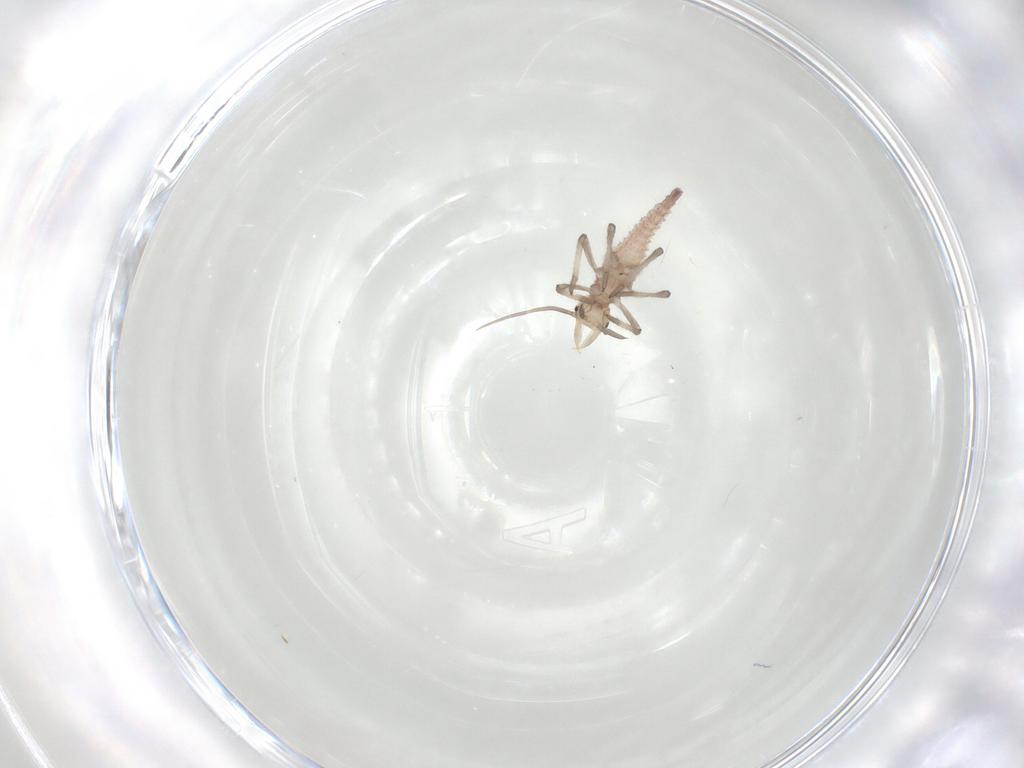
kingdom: Animalia
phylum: Arthropoda
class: Insecta
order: Neuroptera
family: Hemerobiidae
